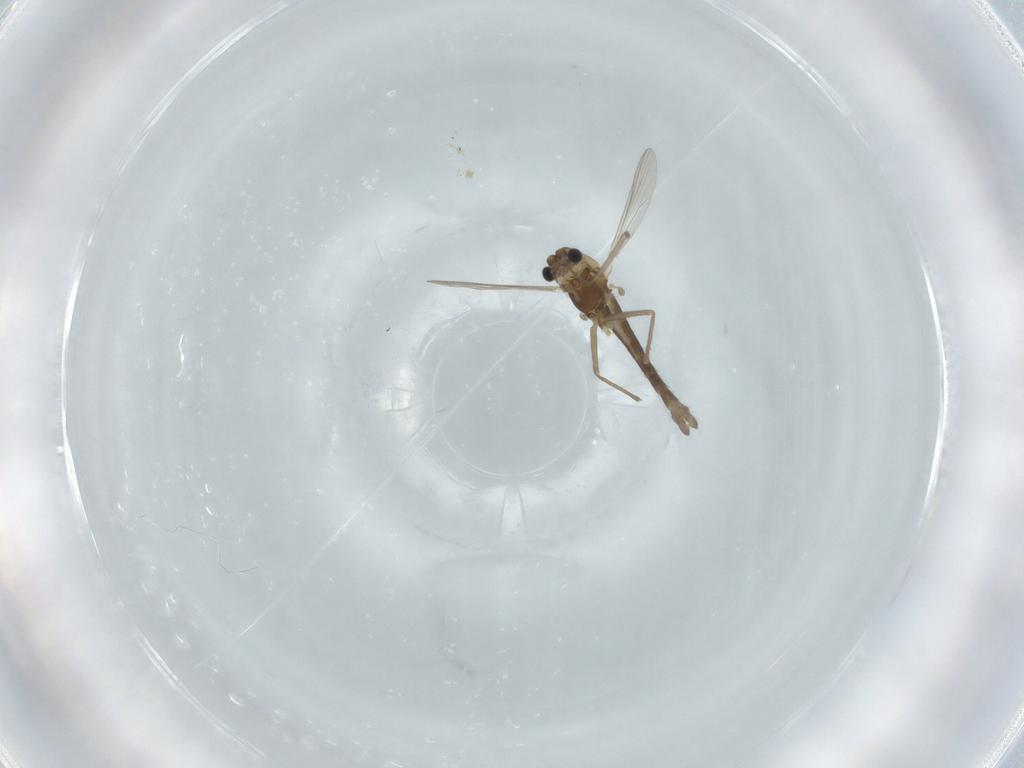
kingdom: Animalia
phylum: Arthropoda
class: Insecta
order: Diptera
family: Chironomidae
